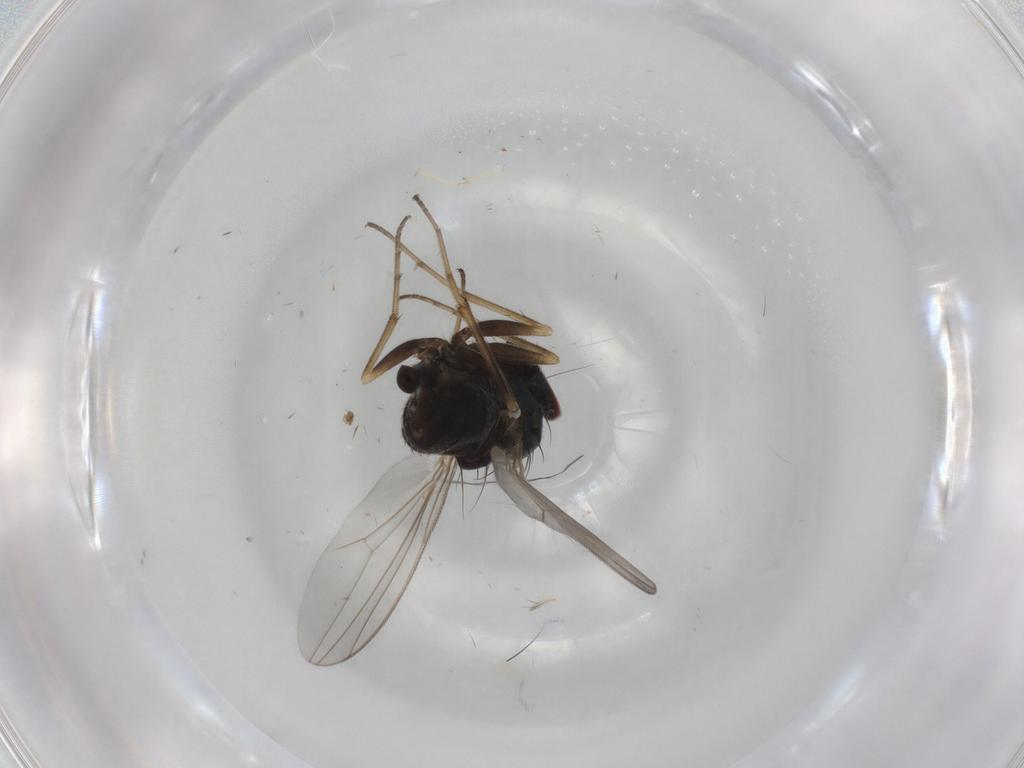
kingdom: Animalia
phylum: Arthropoda
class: Insecta
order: Diptera
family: Dolichopodidae
